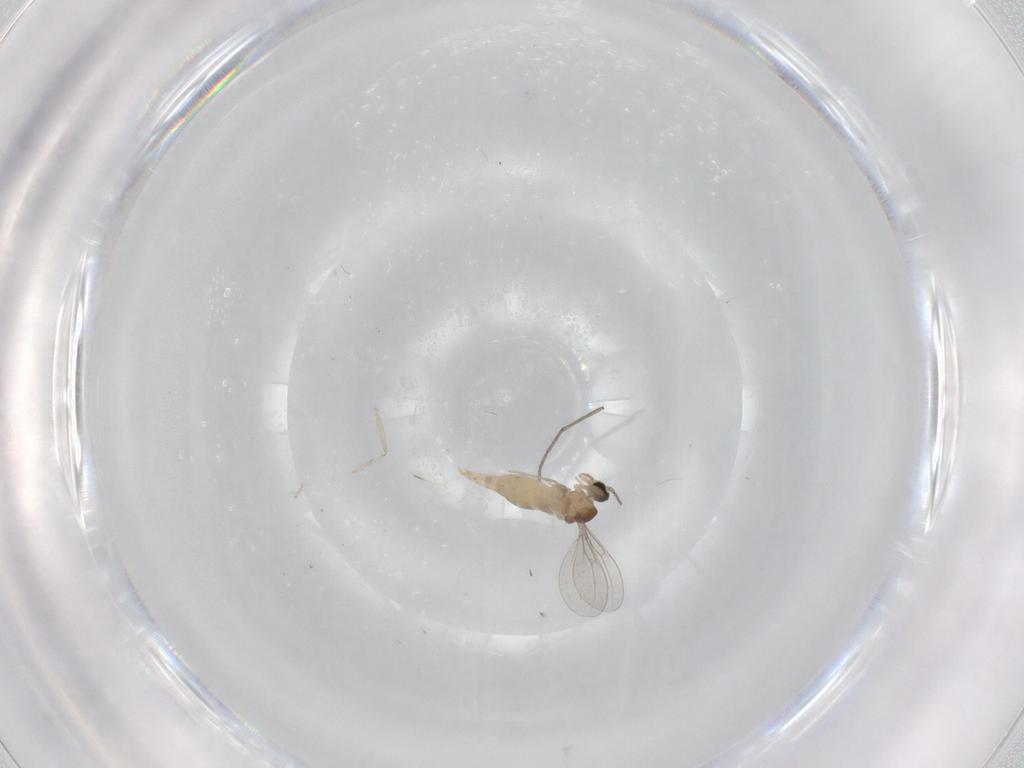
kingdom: Animalia
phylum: Arthropoda
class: Insecta
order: Diptera
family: Cecidomyiidae
